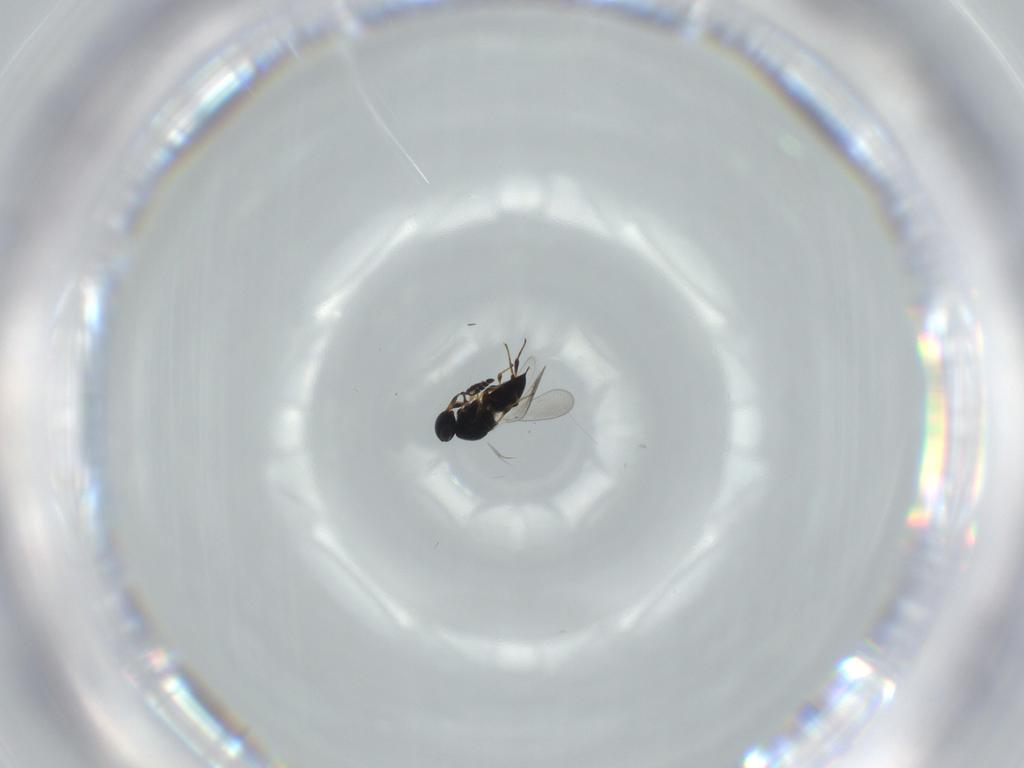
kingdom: Animalia
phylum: Arthropoda
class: Insecta
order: Hymenoptera
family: Platygastridae
